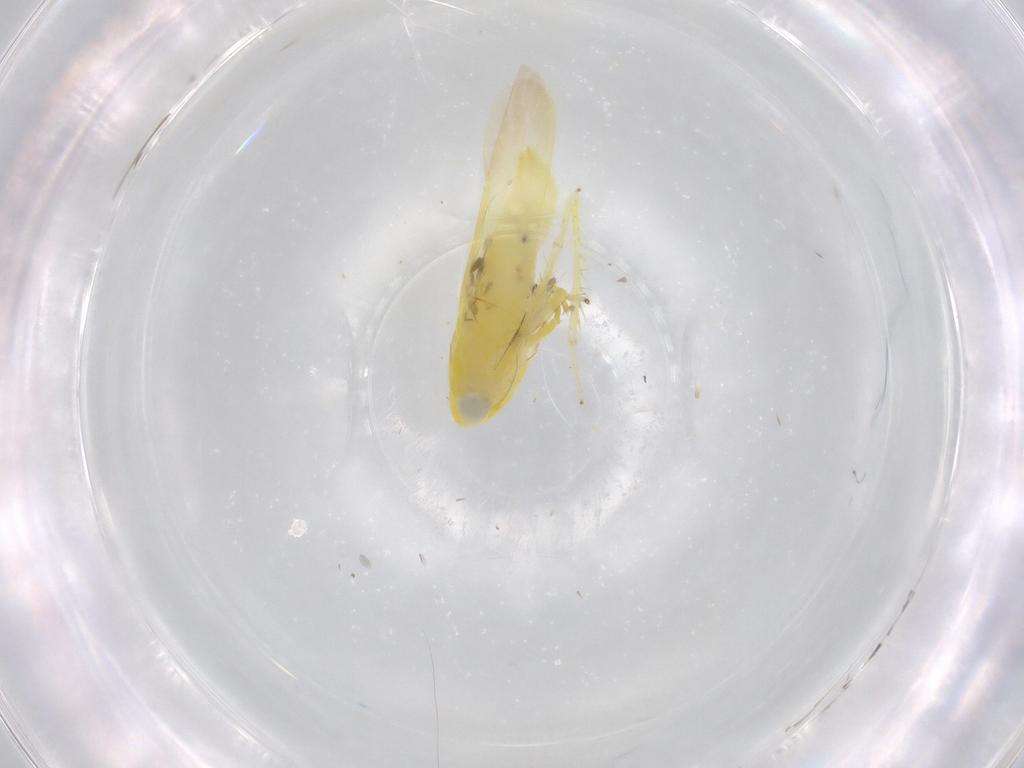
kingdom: Animalia
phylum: Arthropoda
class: Insecta
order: Hemiptera
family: Cicadellidae
